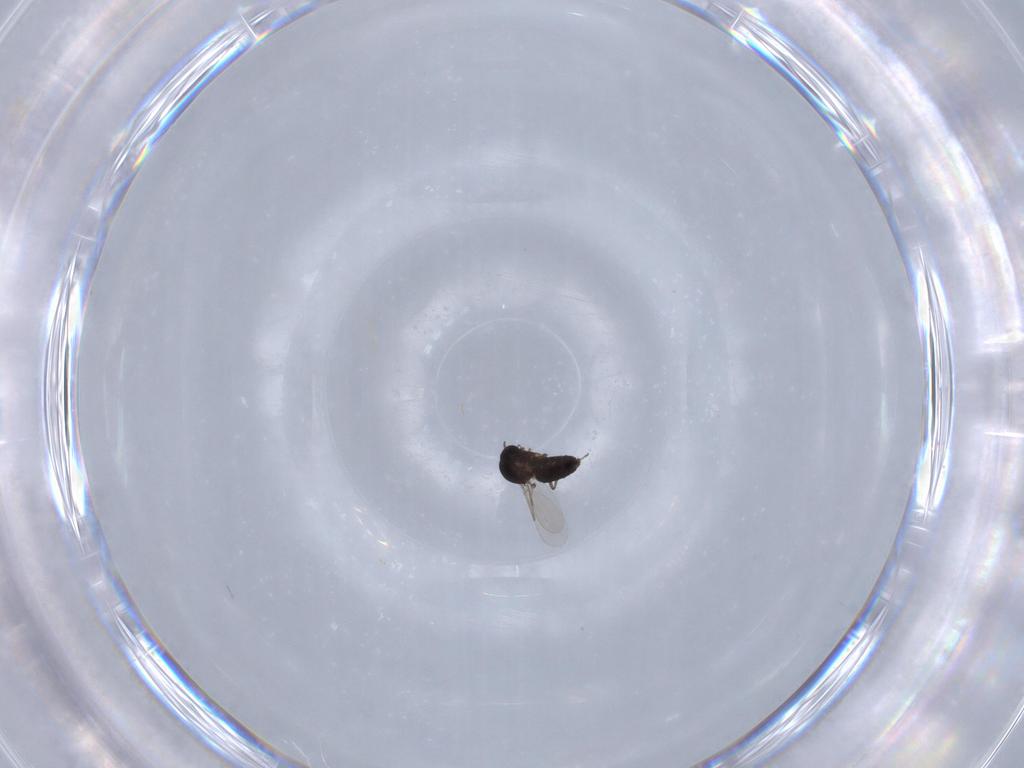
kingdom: Animalia
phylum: Arthropoda
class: Insecta
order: Diptera
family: Ceratopogonidae
